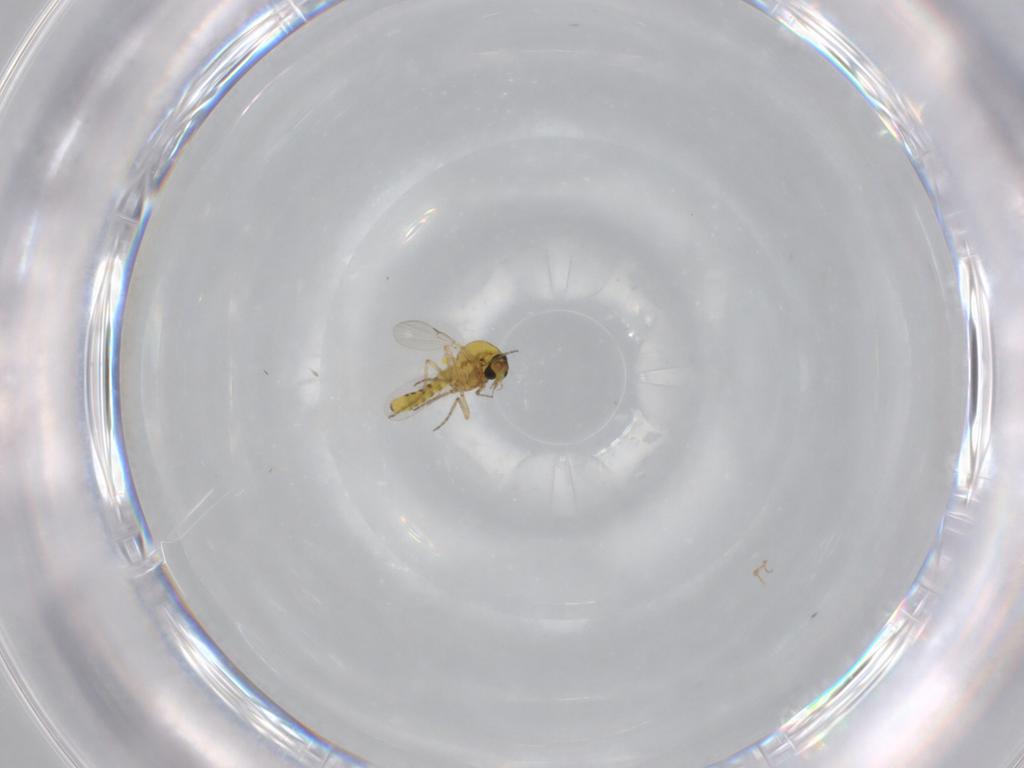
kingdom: Animalia
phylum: Arthropoda
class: Insecta
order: Diptera
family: Ceratopogonidae
